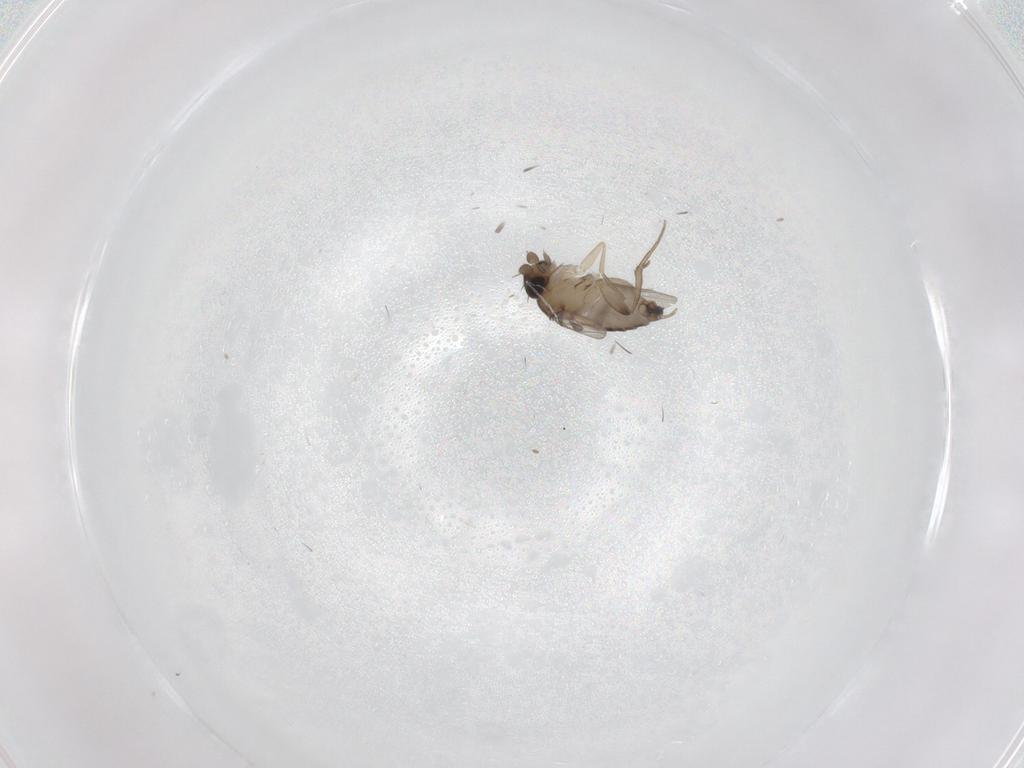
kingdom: Animalia
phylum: Arthropoda
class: Insecta
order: Diptera
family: Phoridae
